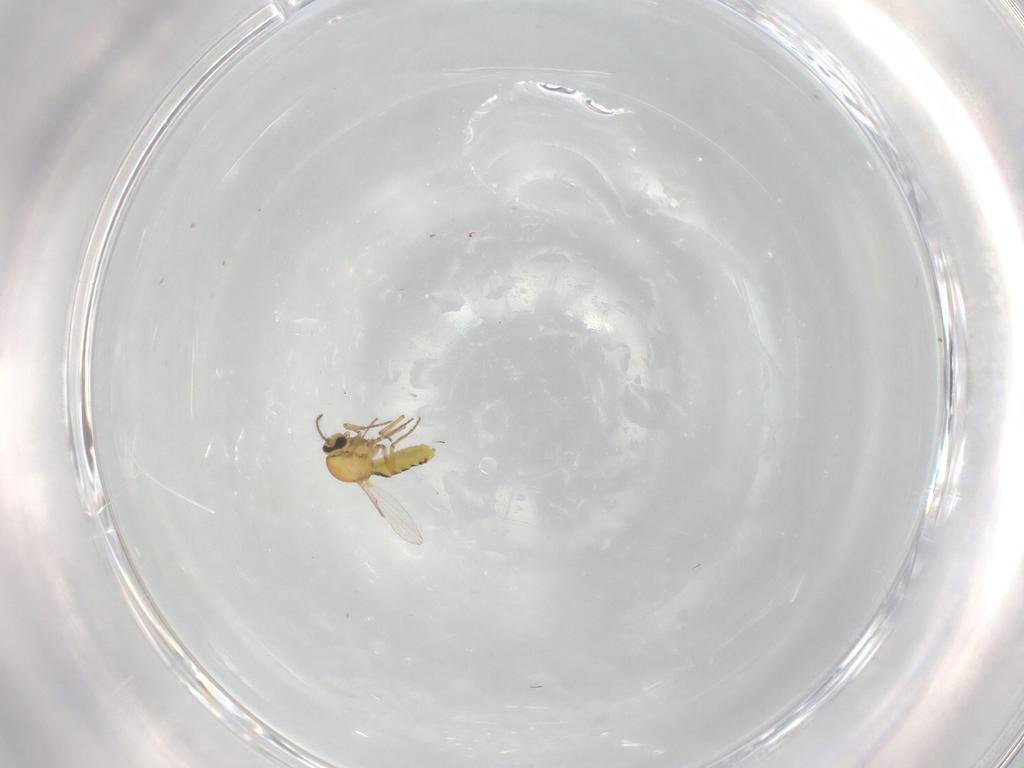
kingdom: Animalia
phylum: Arthropoda
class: Insecta
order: Diptera
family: Ceratopogonidae
